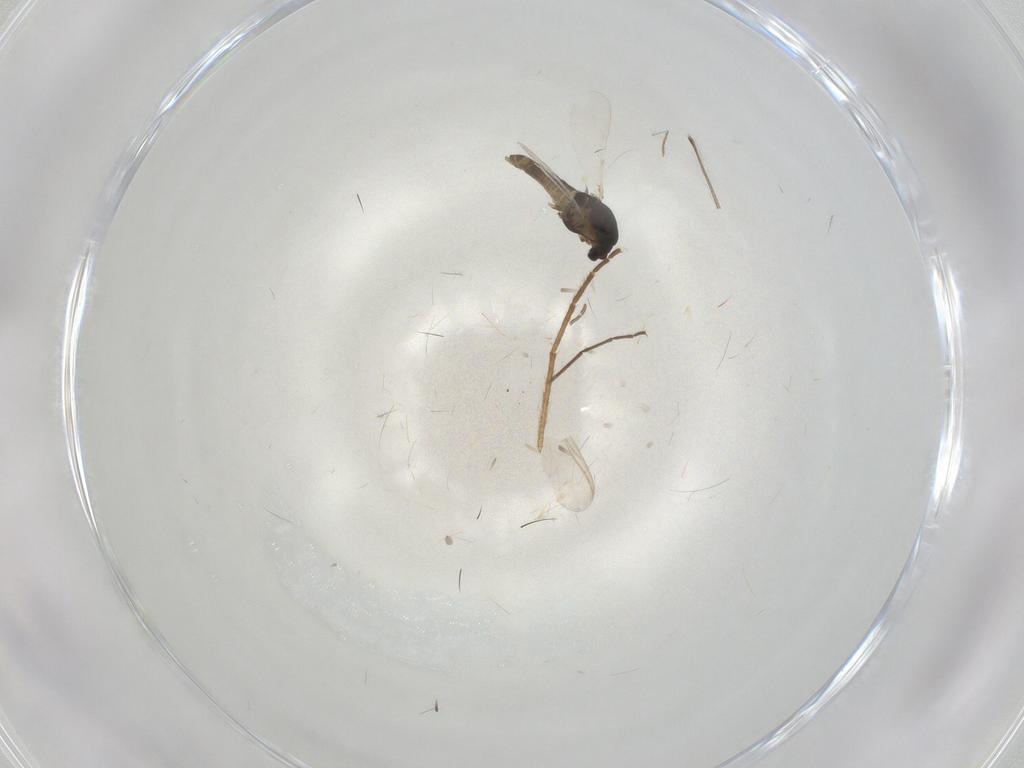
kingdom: Animalia
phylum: Arthropoda
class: Insecta
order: Diptera
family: Chironomidae
